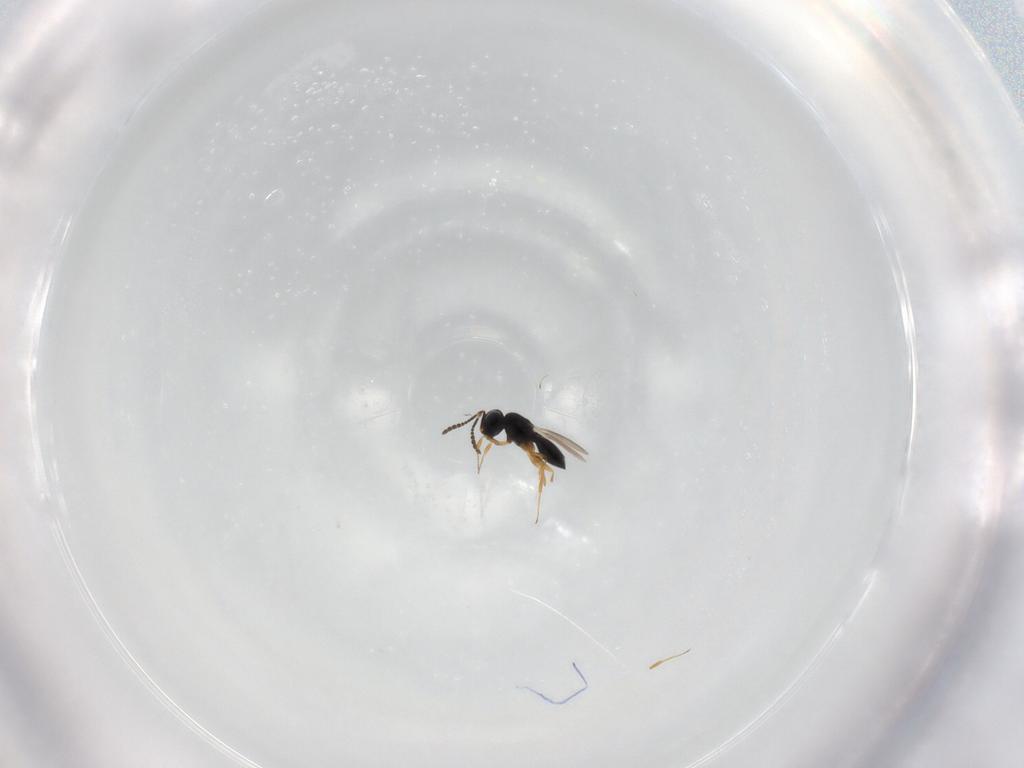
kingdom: Animalia
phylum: Arthropoda
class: Insecta
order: Hymenoptera
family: Scelionidae
